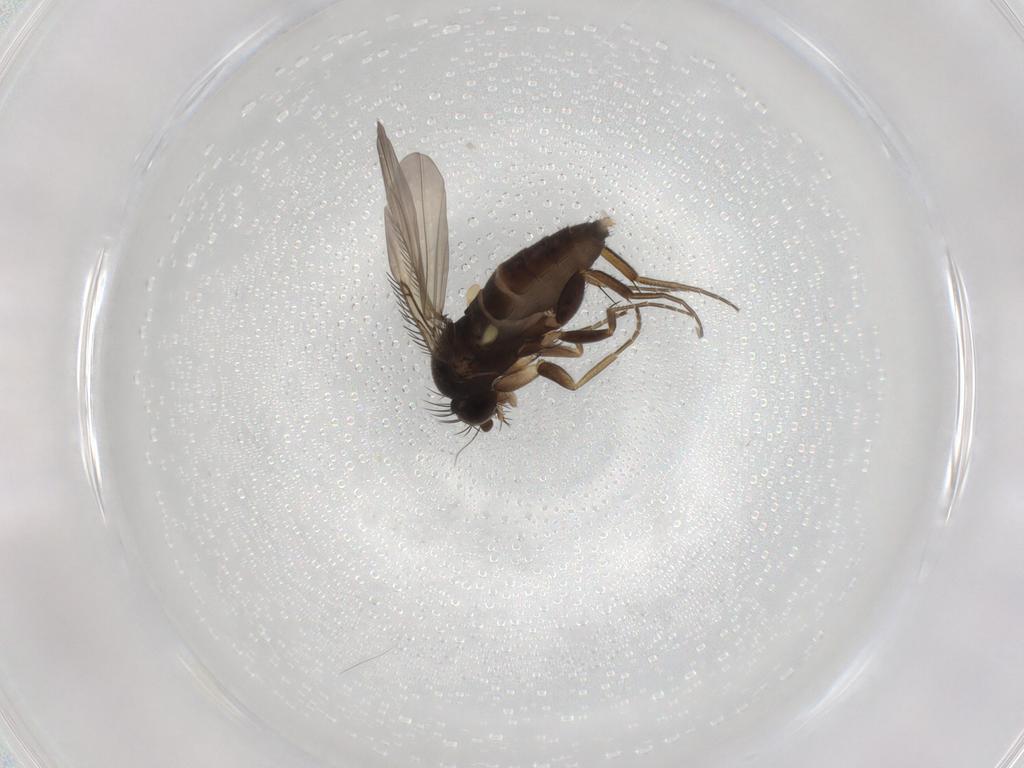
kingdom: Animalia
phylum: Arthropoda
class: Insecta
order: Diptera
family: Phoridae
